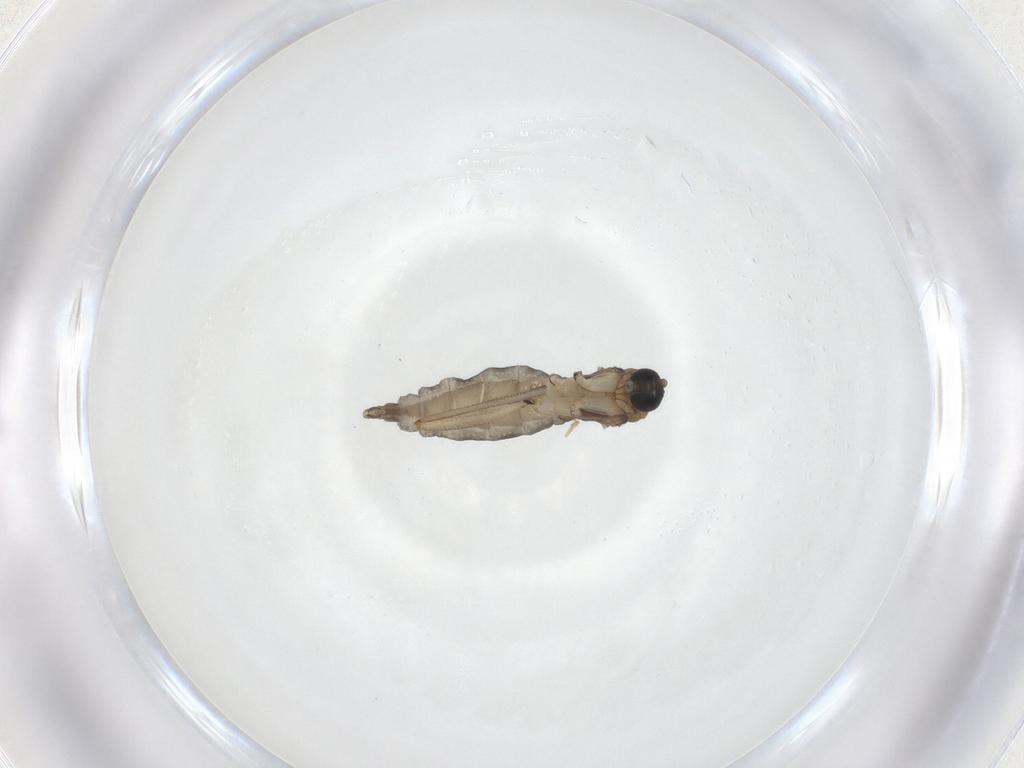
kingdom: Animalia
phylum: Arthropoda
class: Insecta
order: Diptera
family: Sciaridae
